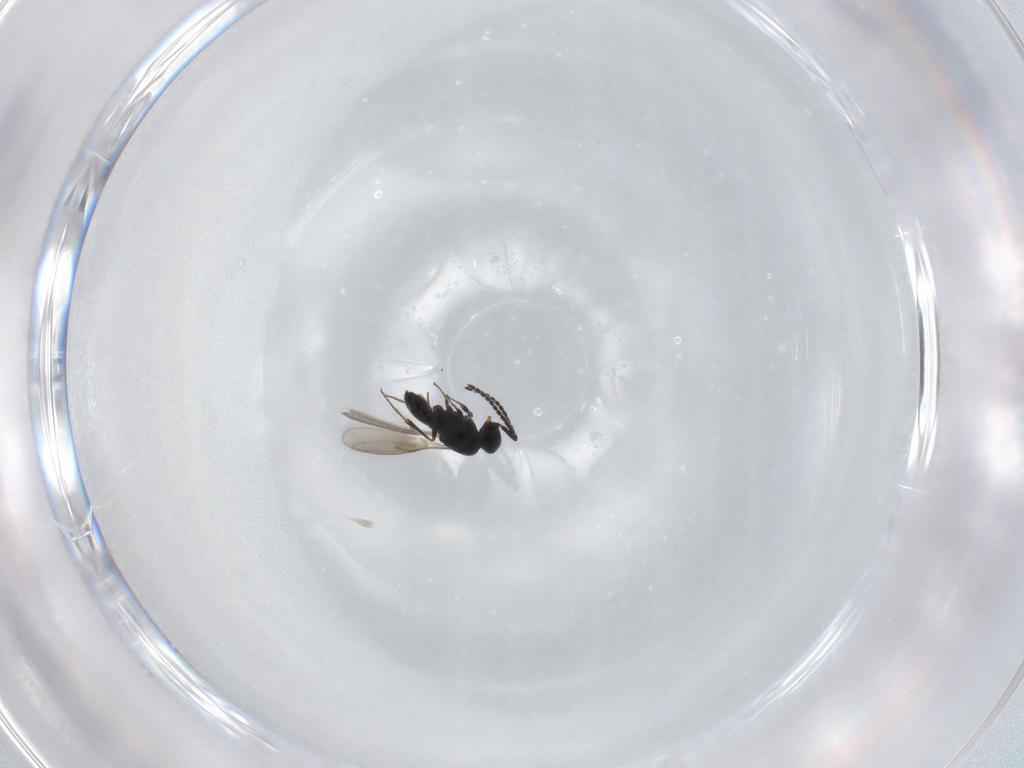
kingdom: Animalia
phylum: Arthropoda
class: Insecta
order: Hymenoptera
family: Scelionidae
